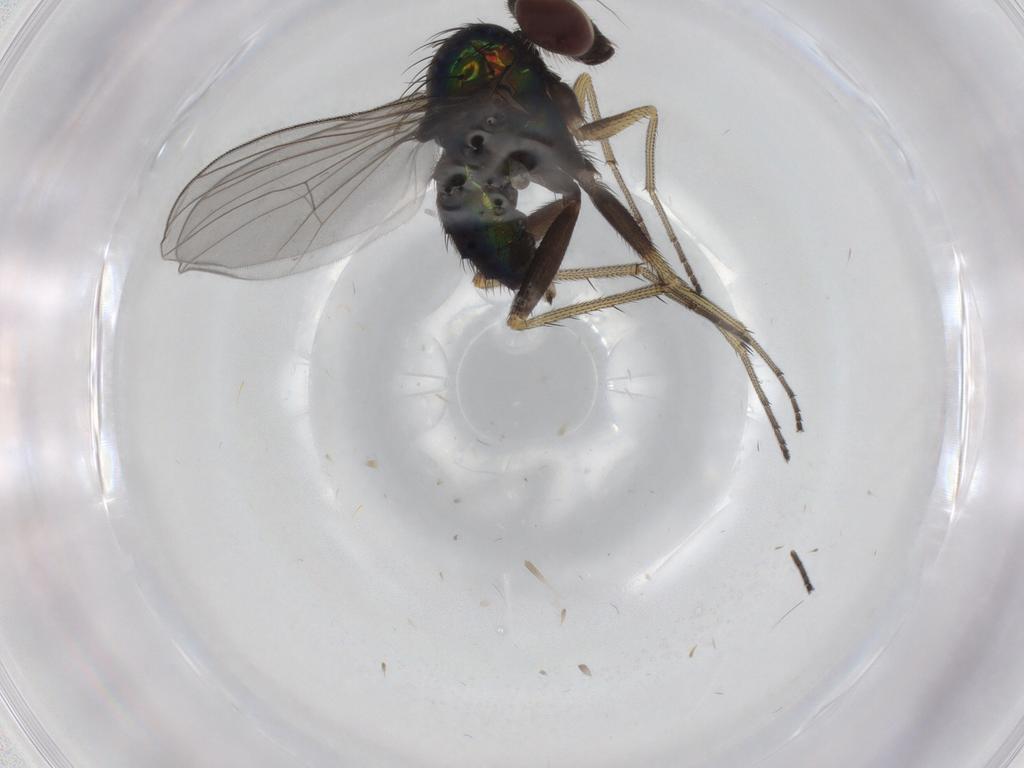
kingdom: Animalia
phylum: Arthropoda
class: Insecta
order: Diptera
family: Dolichopodidae
